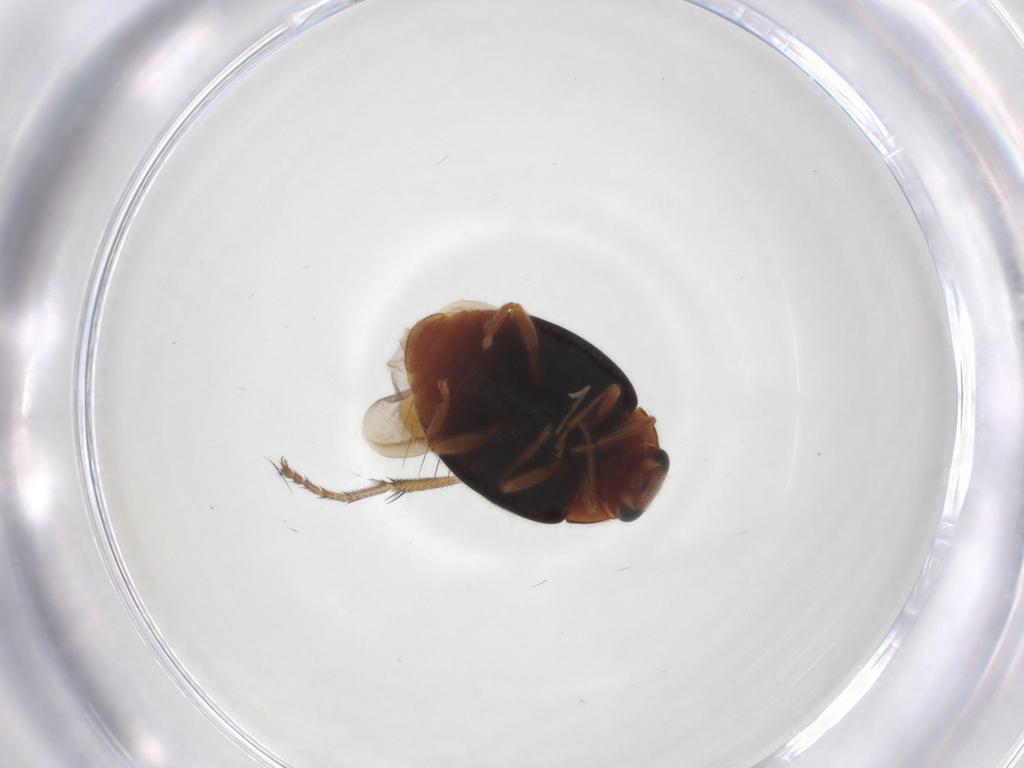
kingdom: Animalia
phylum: Arthropoda
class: Insecta
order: Coleoptera
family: Coccinellidae
